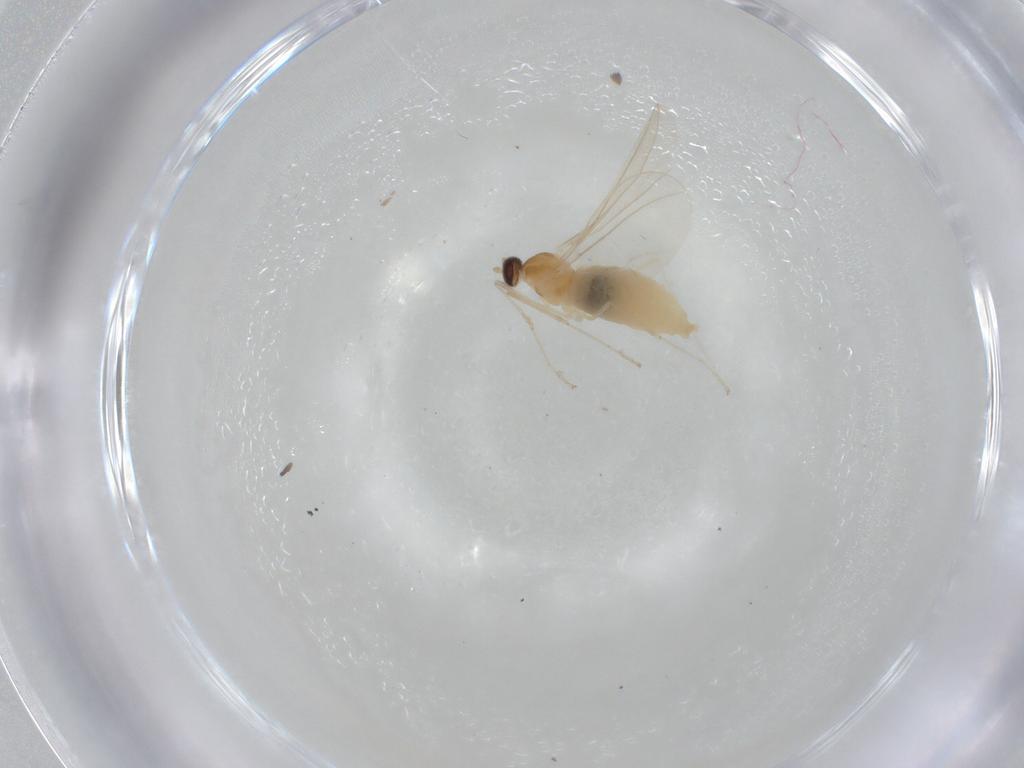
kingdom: Animalia
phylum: Arthropoda
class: Insecta
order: Diptera
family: Cecidomyiidae
